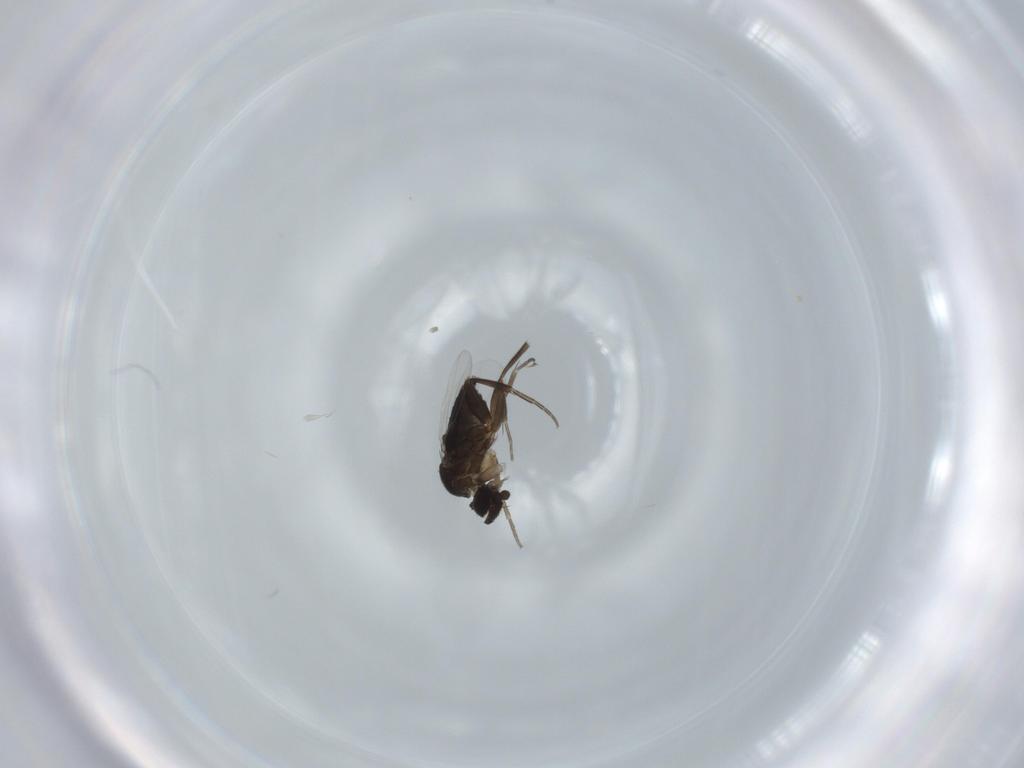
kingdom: Animalia
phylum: Arthropoda
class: Insecta
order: Diptera
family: Phoridae
